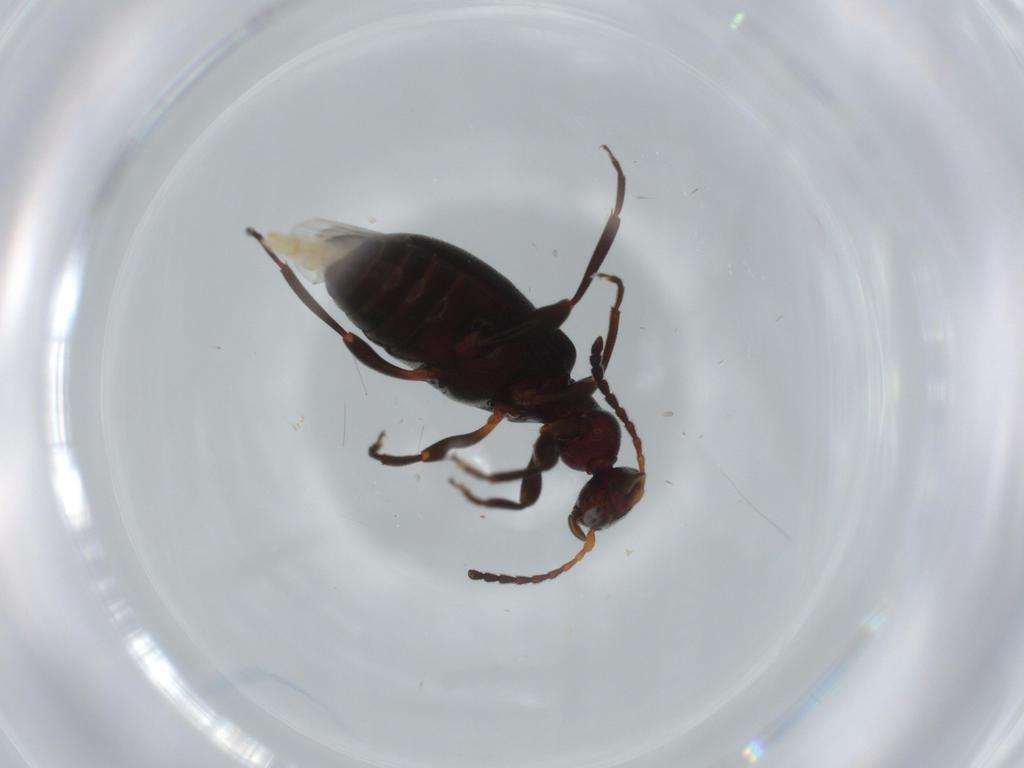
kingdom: Animalia
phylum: Arthropoda
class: Insecta
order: Coleoptera
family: Anthicidae
